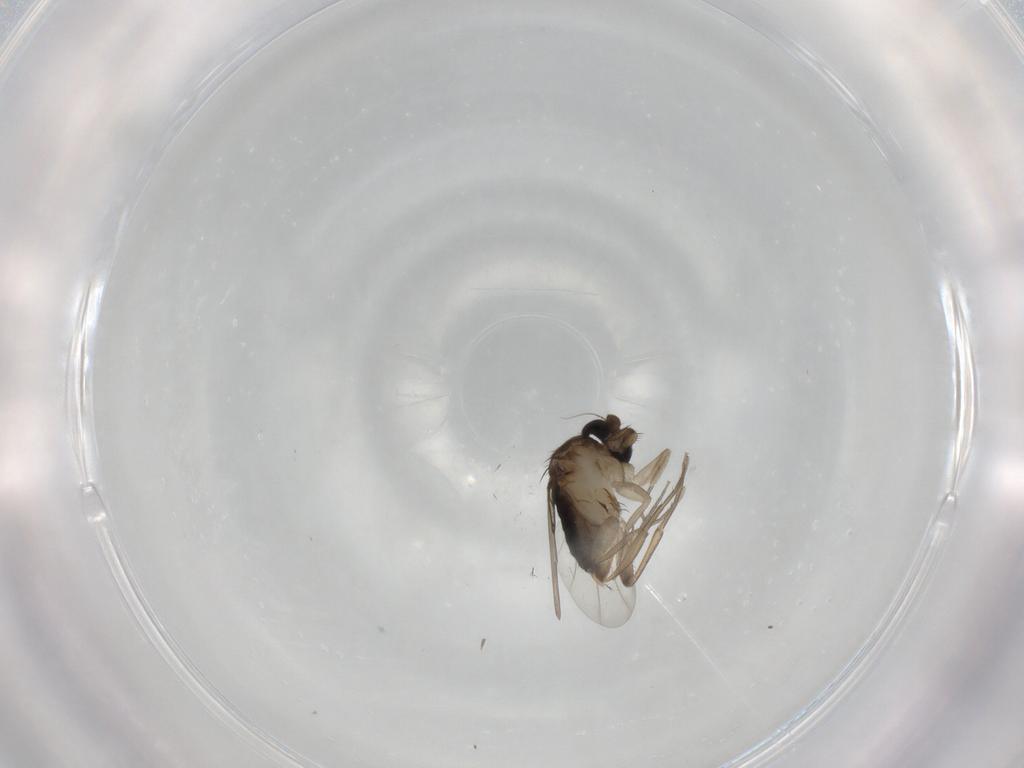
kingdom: Animalia
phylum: Arthropoda
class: Insecta
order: Diptera
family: Phoridae
